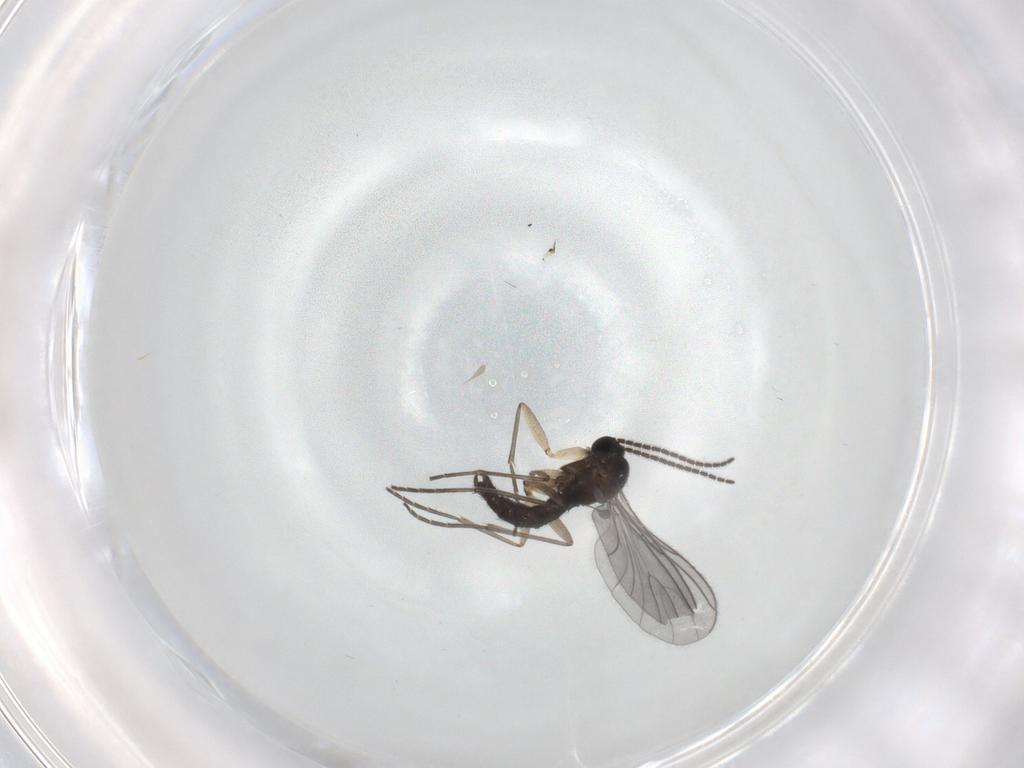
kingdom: Animalia
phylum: Arthropoda
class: Insecta
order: Diptera
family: Sciaridae
